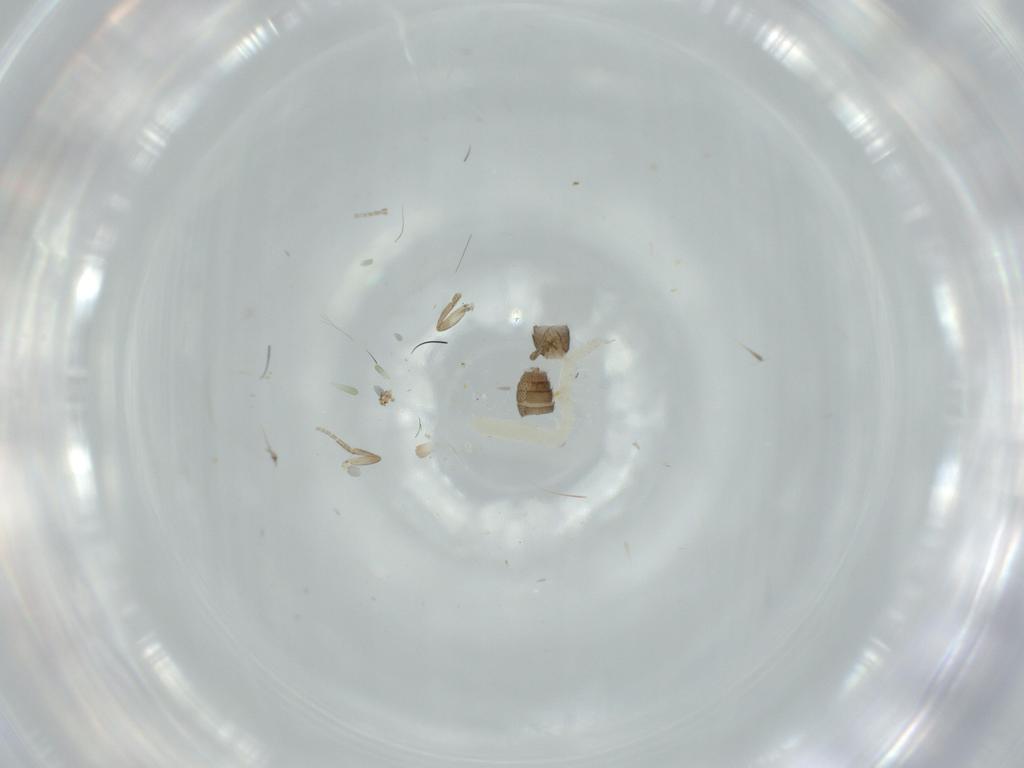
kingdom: Animalia
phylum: Arthropoda
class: Insecta
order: Diptera
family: Phoridae
